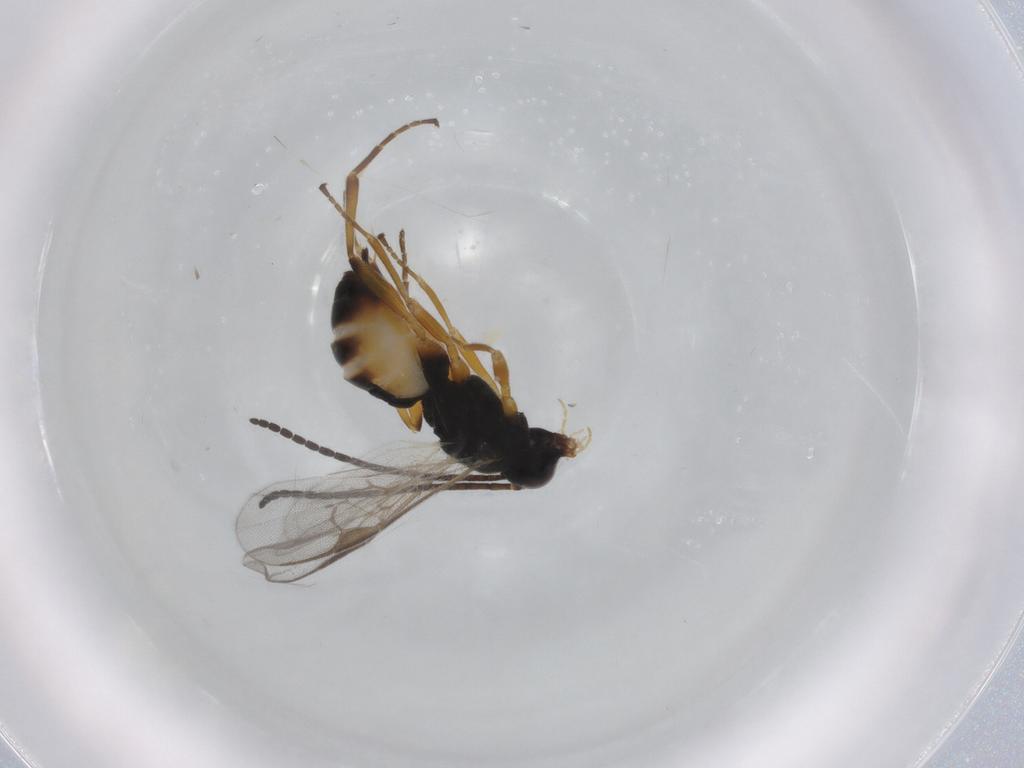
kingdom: Animalia
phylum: Arthropoda
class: Insecta
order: Hymenoptera
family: Braconidae
